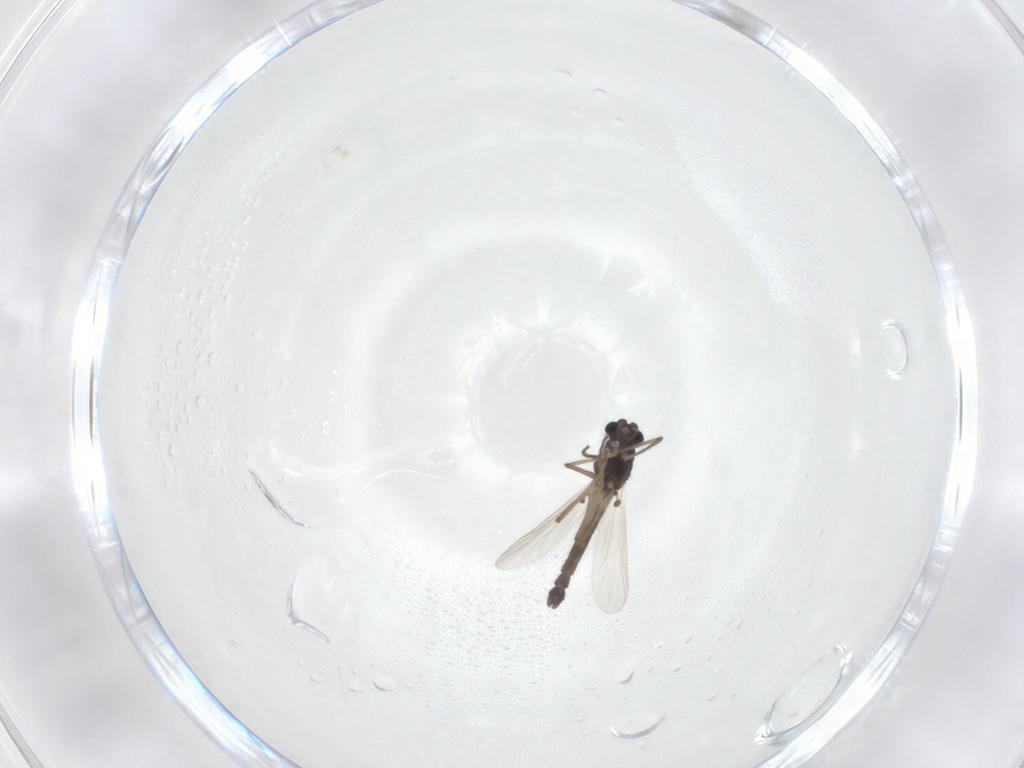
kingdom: Animalia
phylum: Arthropoda
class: Insecta
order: Diptera
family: Chironomidae
